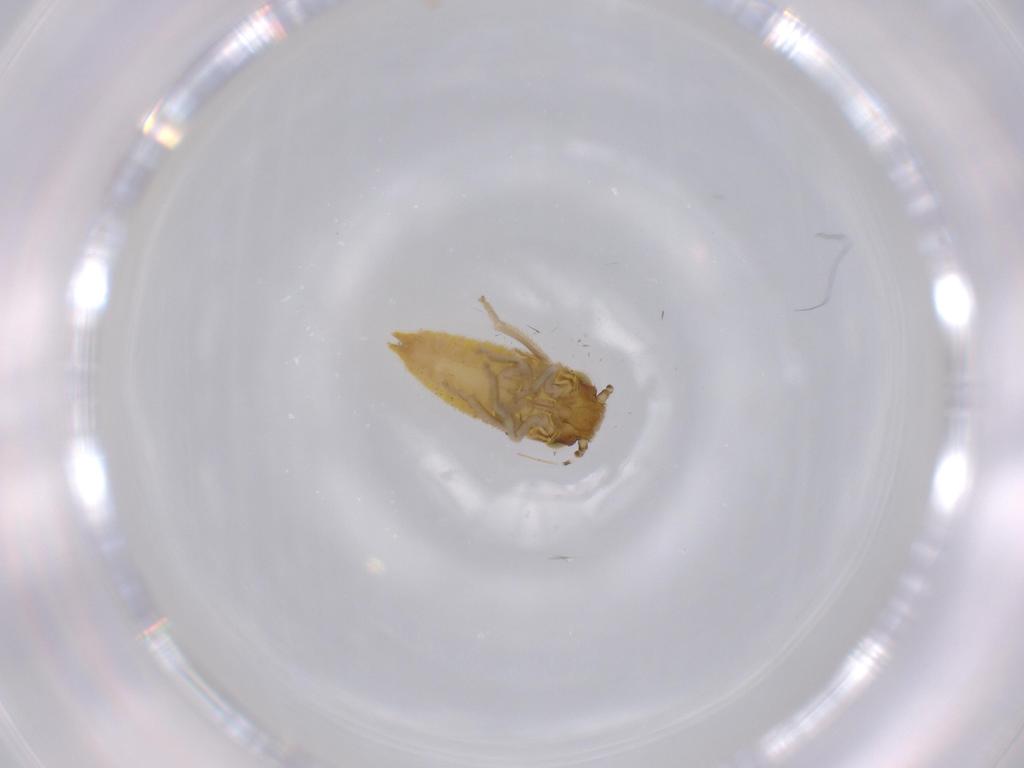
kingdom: Animalia
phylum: Arthropoda
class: Insecta
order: Hemiptera
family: Cicadellidae
